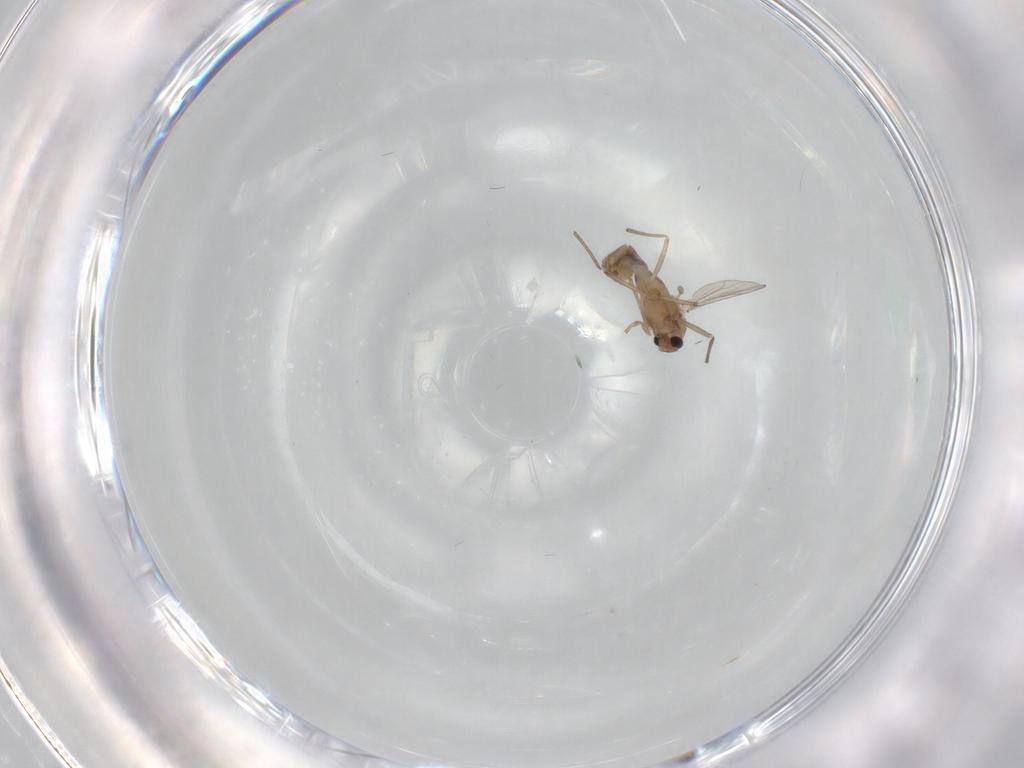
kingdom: Animalia
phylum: Arthropoda
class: Insecta
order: Diptera
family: Chironomidae
